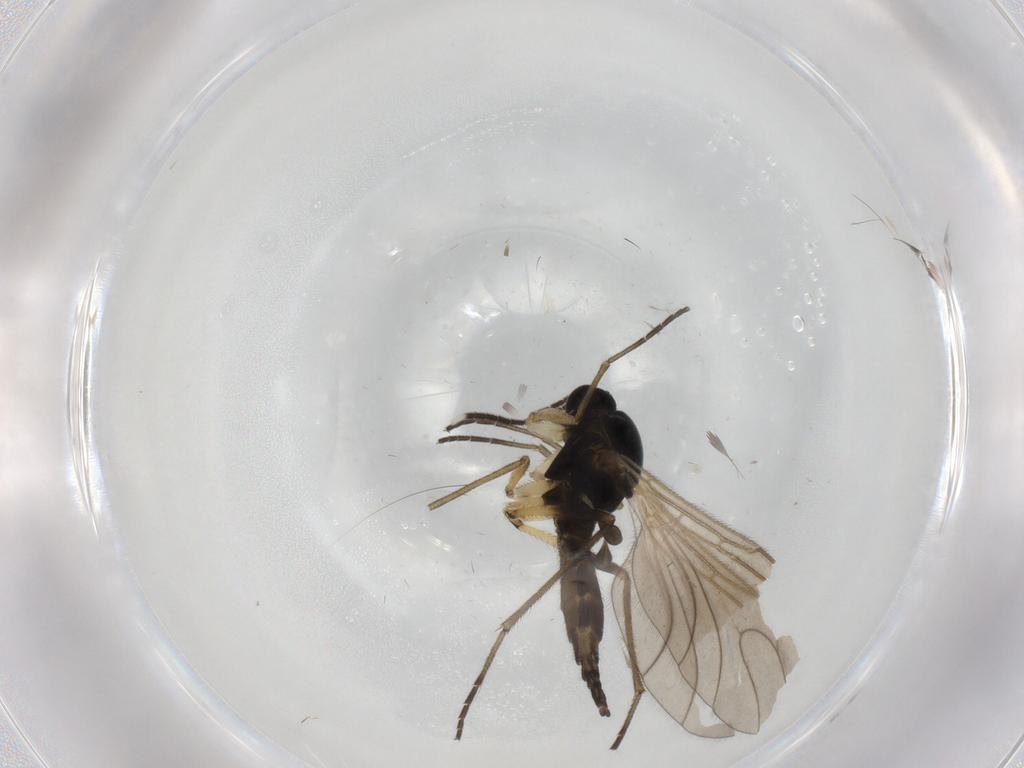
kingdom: Animalia
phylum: Arthropoda
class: Insecta
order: Diptera
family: Sciaridae
